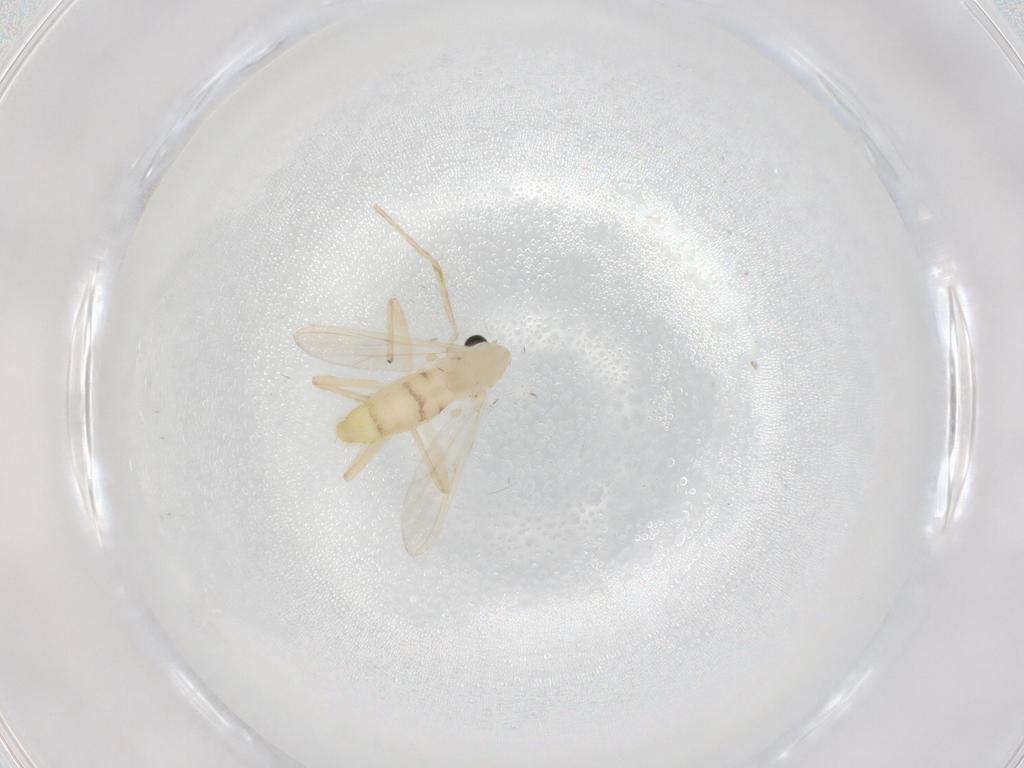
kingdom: Animalia
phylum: Arthropoda
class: Insecta
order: Diptera
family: Chironomidae
